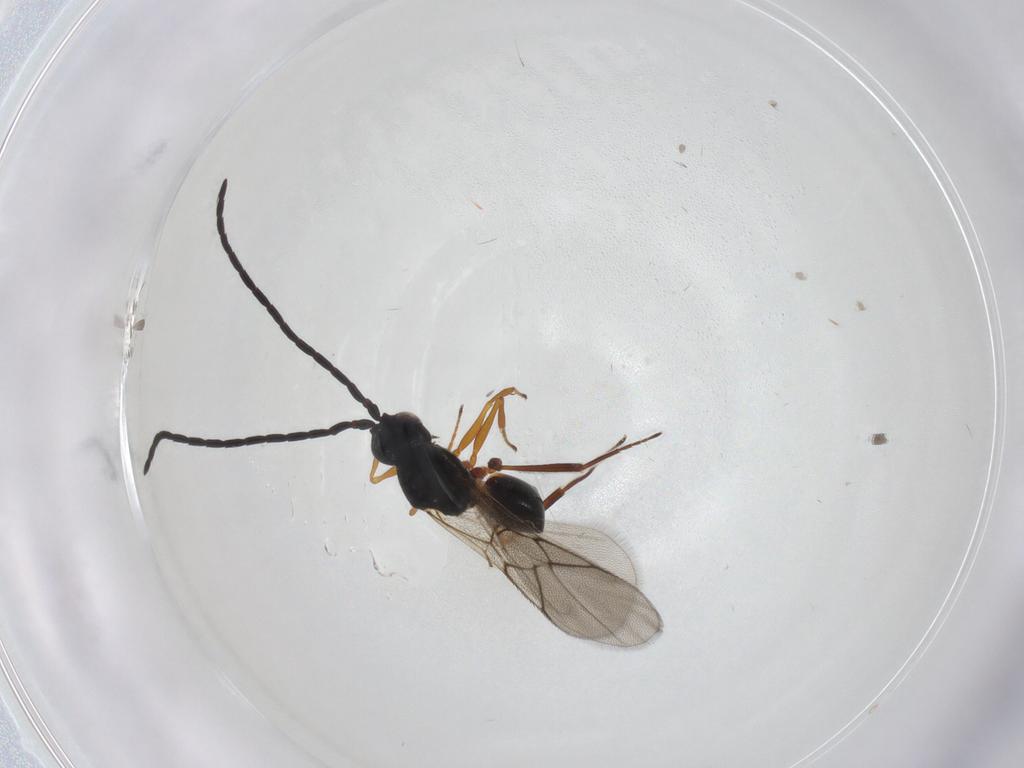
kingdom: Animalia
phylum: Arthropoda
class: Insecta
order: Hymenoptera
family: Figitidae
